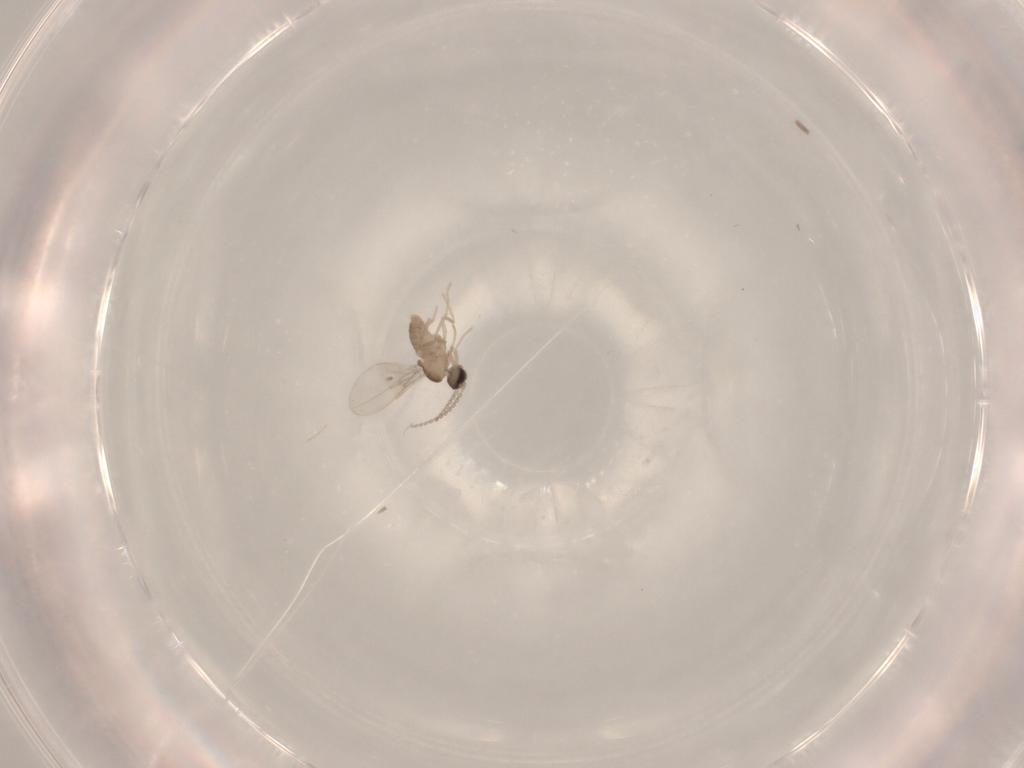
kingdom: Animalia
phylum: Arthropoda
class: Insecta
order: Diptera
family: Cecidomyiidae
